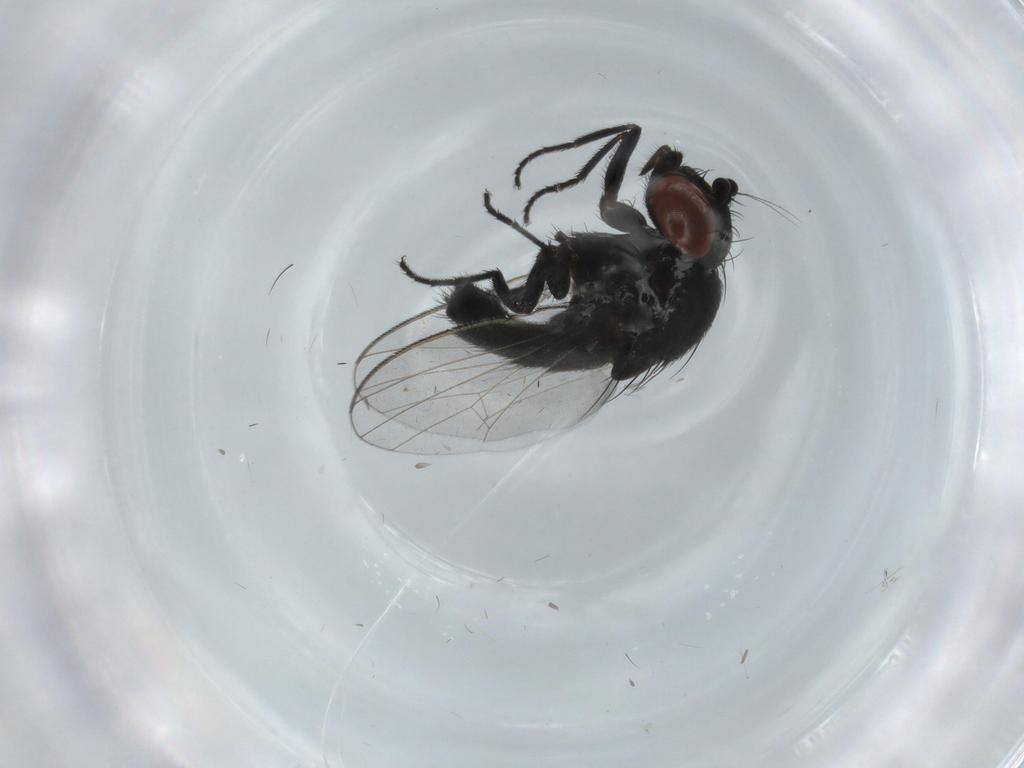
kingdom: Animalia
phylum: Arthropoda
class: Insecta
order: Diptera
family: Milichiidae
